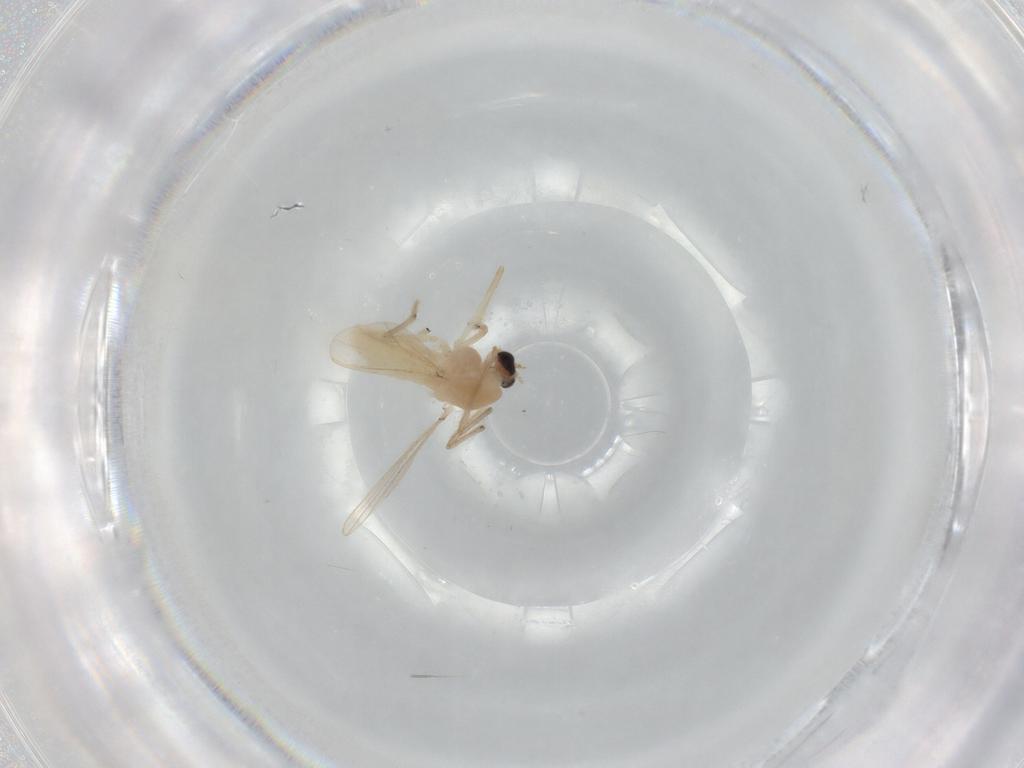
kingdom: Animalia
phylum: Arthropoda
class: Insecta
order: Diptera
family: Chironomidae
